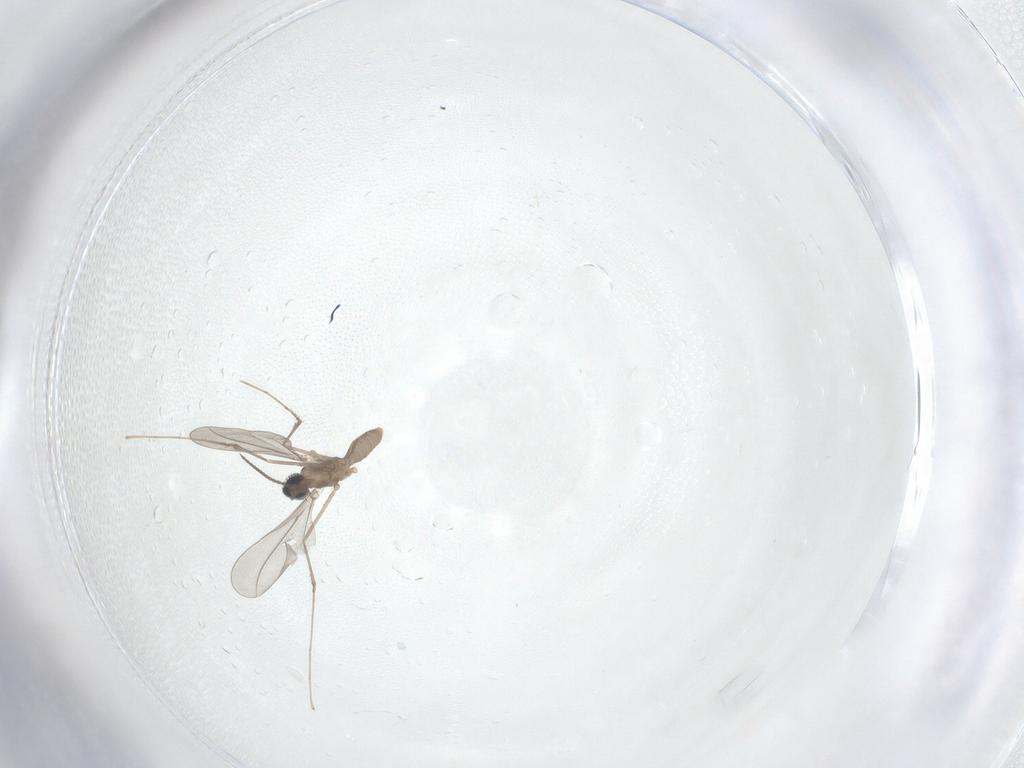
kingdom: Animalia
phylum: Arthropoda
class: Insecta
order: Diptera
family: Cecidomyiidae
